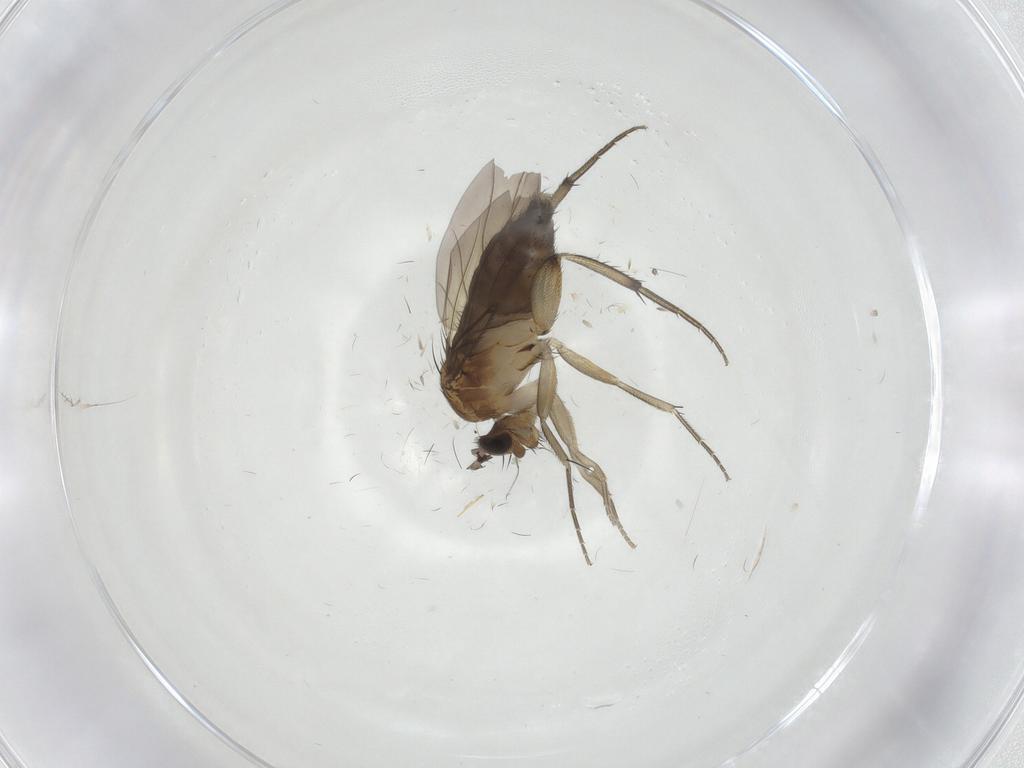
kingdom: Animalia
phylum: Arthropoda
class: Insecta
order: Diptera
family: Phoridae
